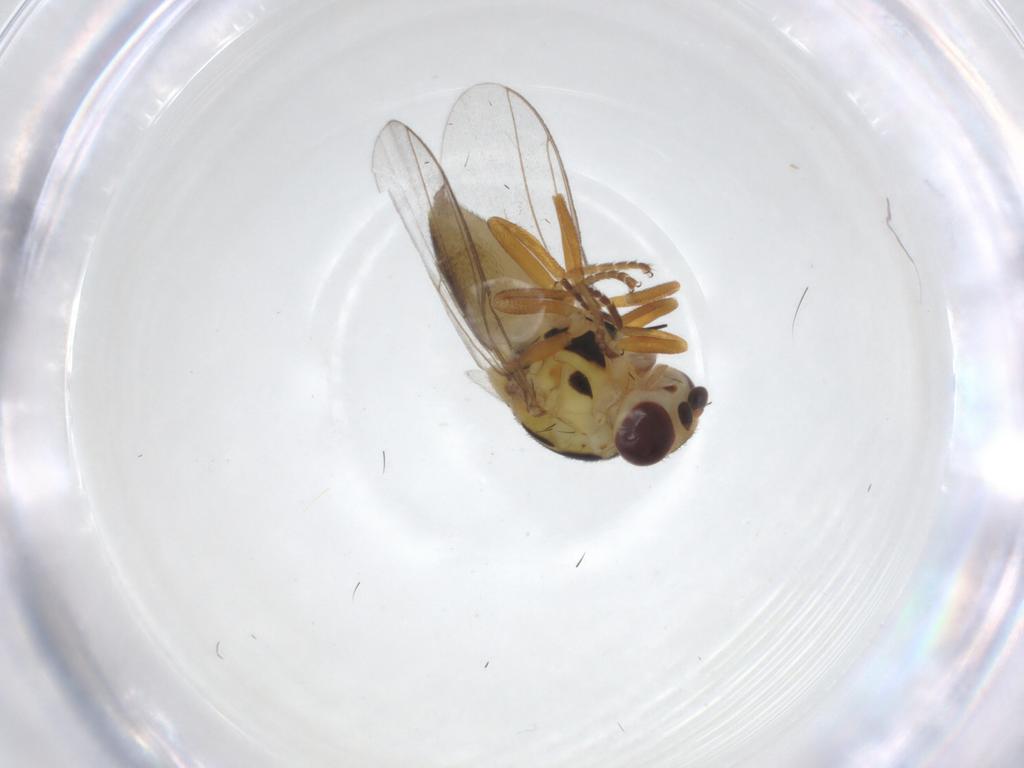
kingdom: Animalia
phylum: Arthropoda
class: Insecta
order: Diptera
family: Chloropidae
